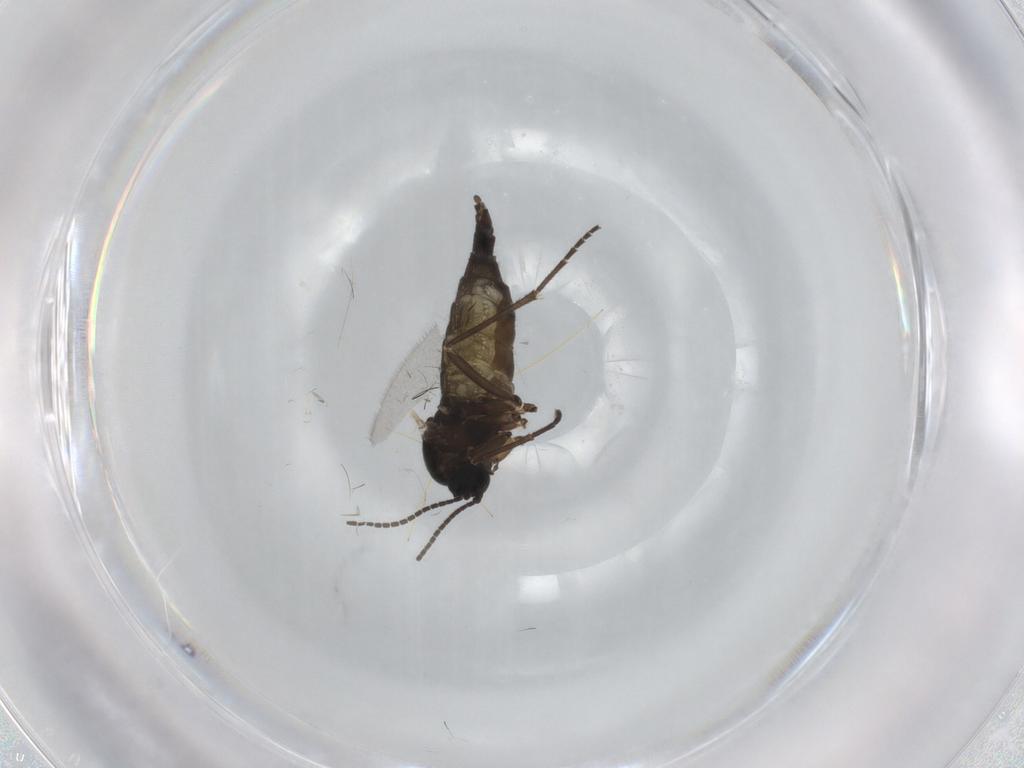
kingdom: Animalia
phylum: Arthropoda
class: Insecta
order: Diptera
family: Sciaridae
